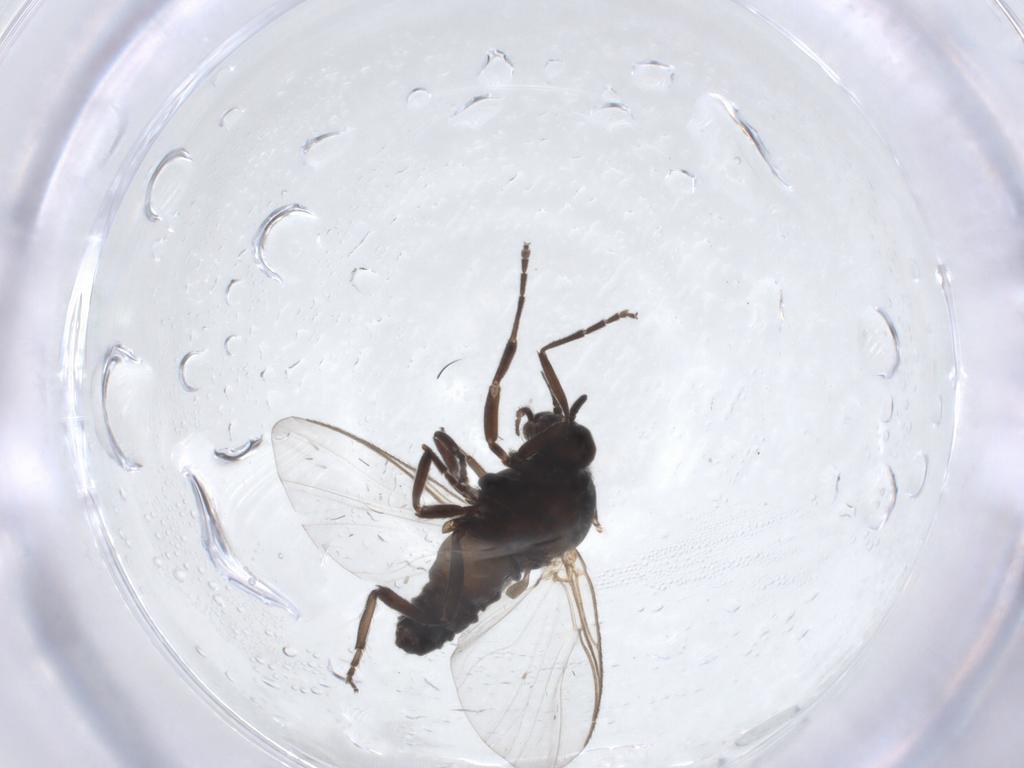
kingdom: Animalia
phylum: Arthropoda
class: Insecta
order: Diptera
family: Simuliidae
